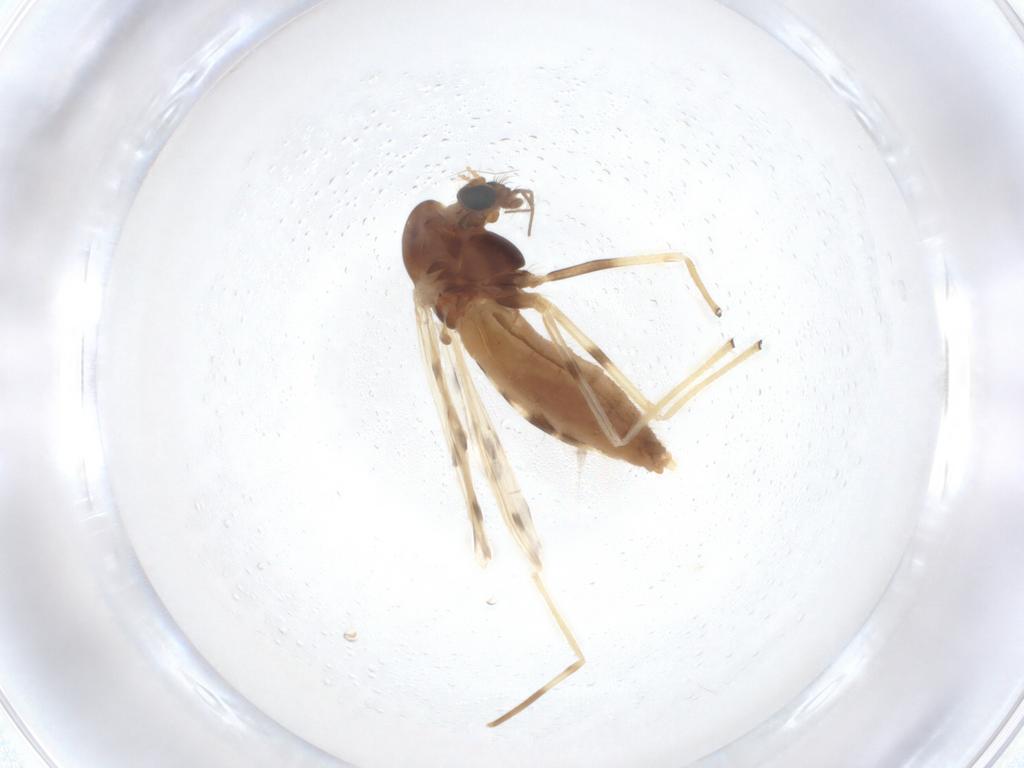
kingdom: Animalia
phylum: Arthropoda
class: Insecta
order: Diptera
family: Chironomidae
